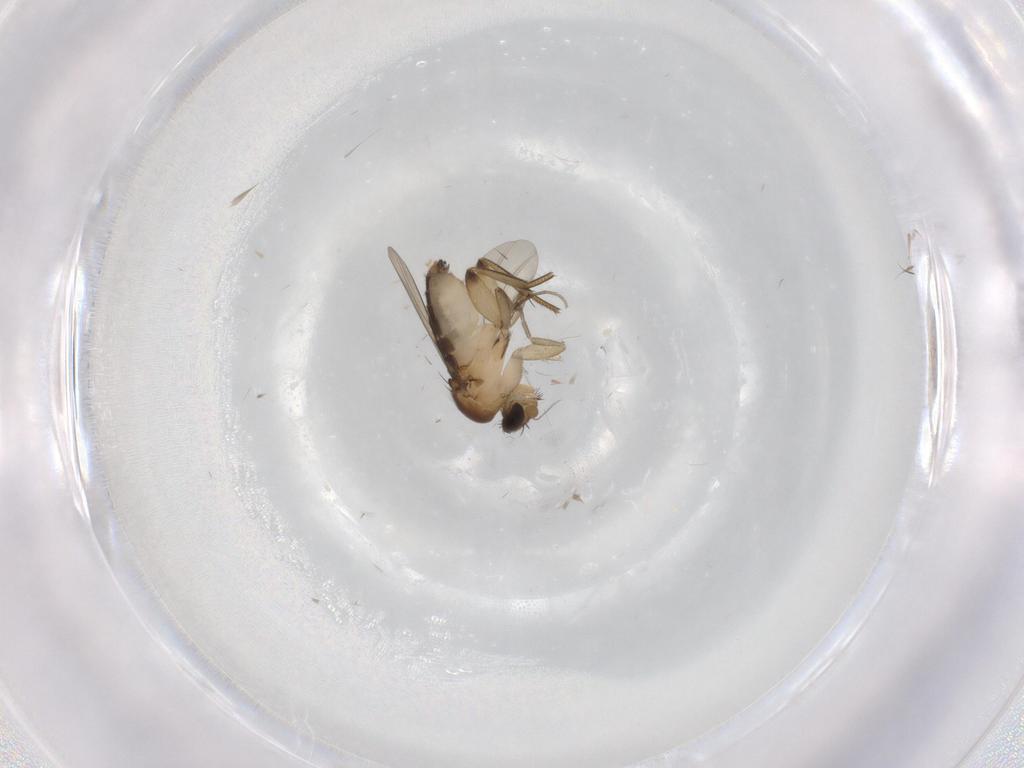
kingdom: Animalia
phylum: Arthropoda
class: Insecta
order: Diptera
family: Phoridae
